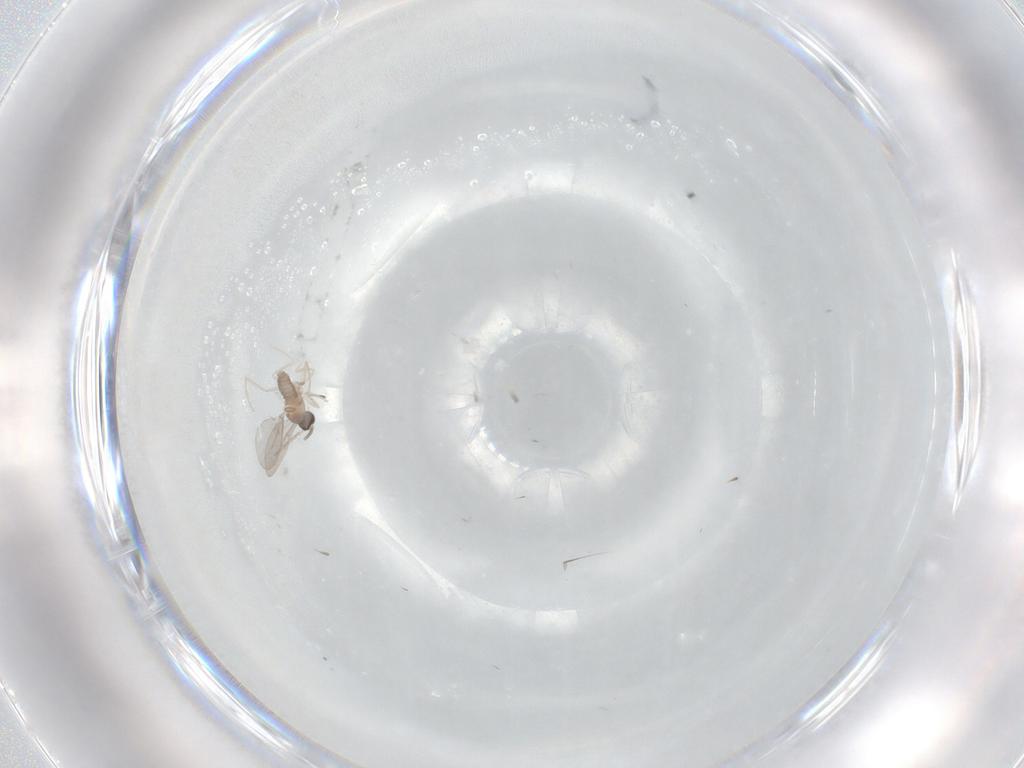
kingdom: Animalia
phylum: Arthropoda
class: Insecta
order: Diptera
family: Cecidomyiidae
